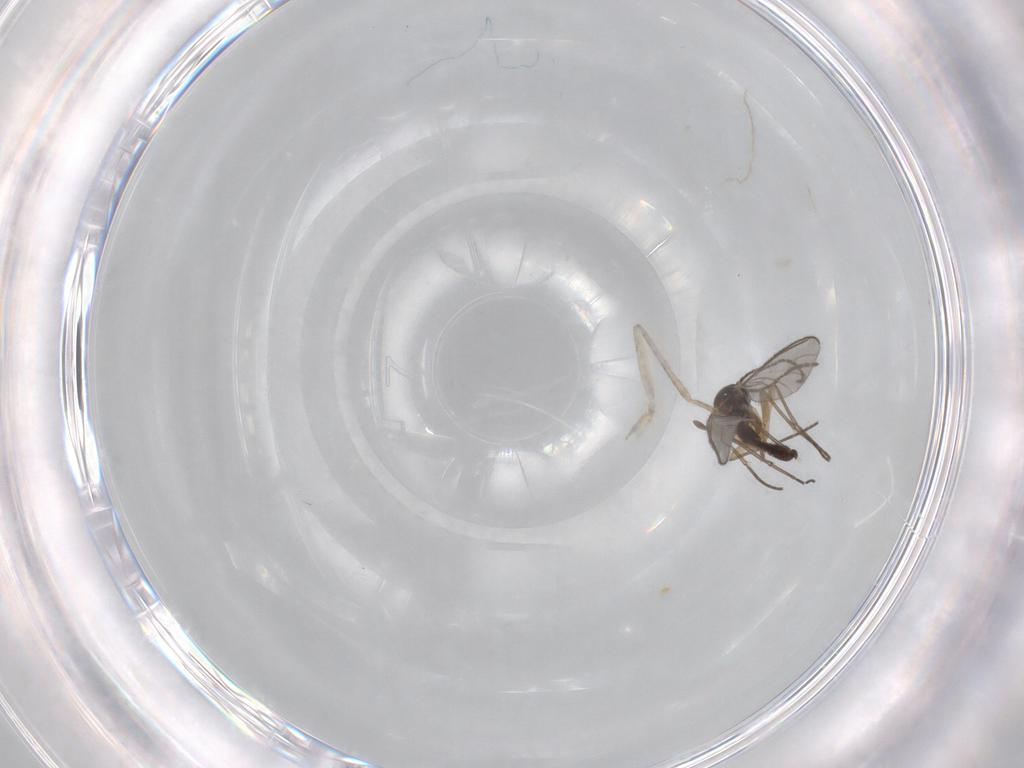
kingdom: Animalia
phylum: Arthropoda
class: Insecta
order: Diptera
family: Sciaridae
